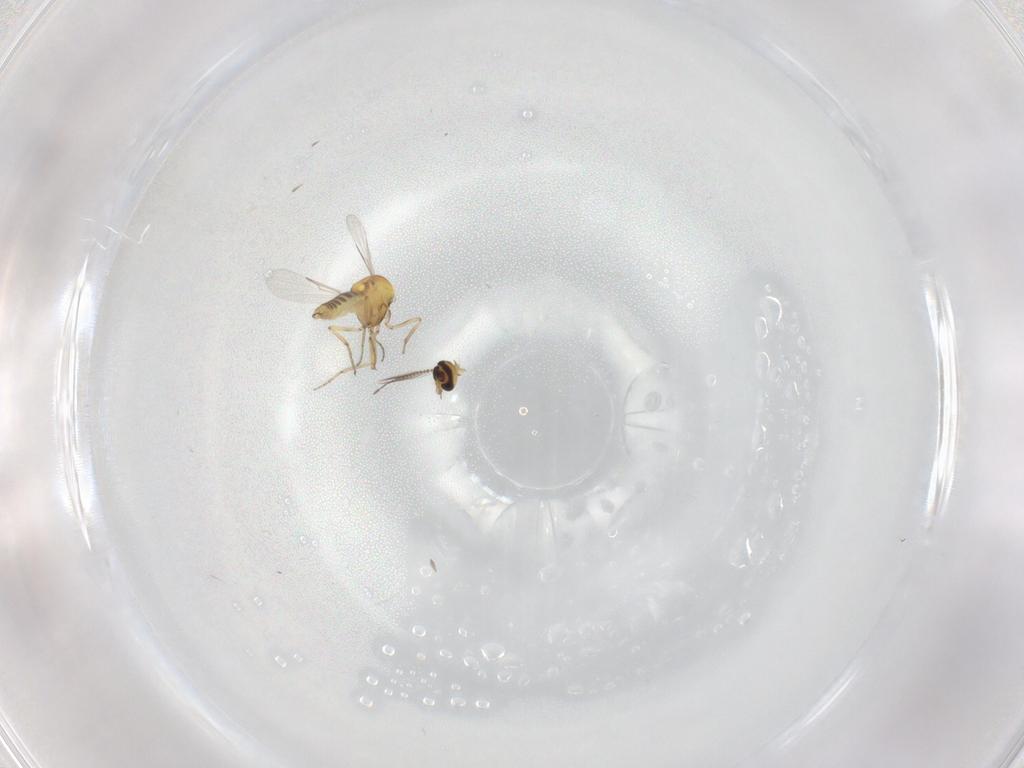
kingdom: Animalia
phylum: Arthropoda
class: Insecta
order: Diptera
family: Ceratopogonidae
